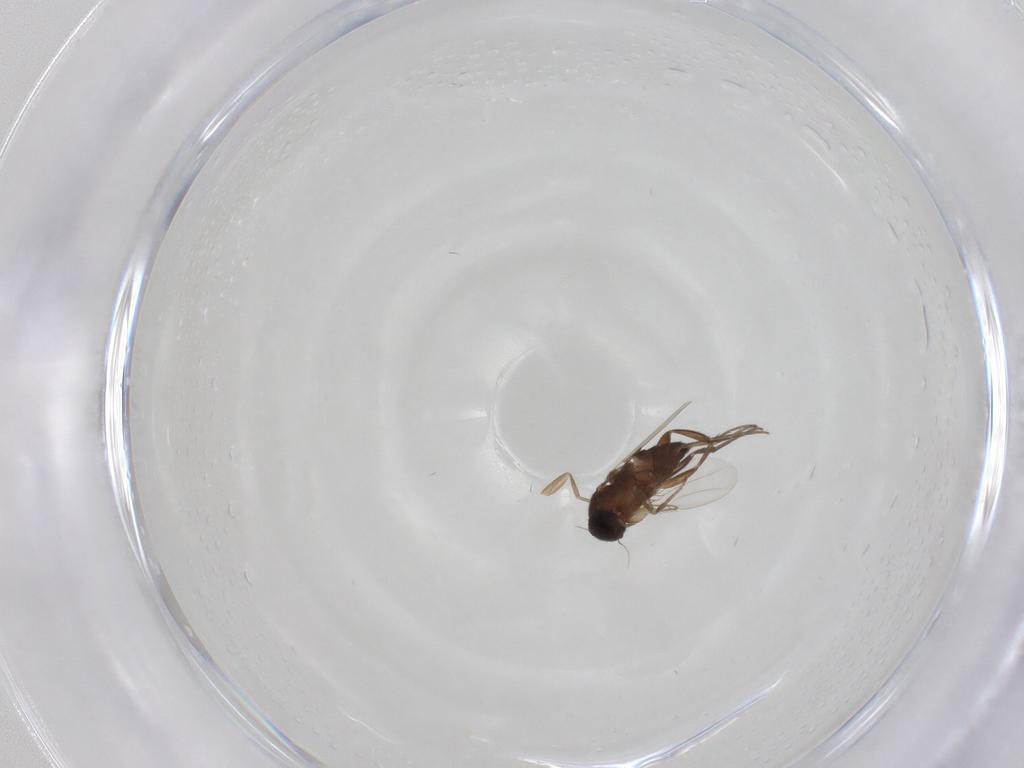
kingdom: Animalia
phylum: Arthropoda
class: Insecta
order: Diptera
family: Phoridae
